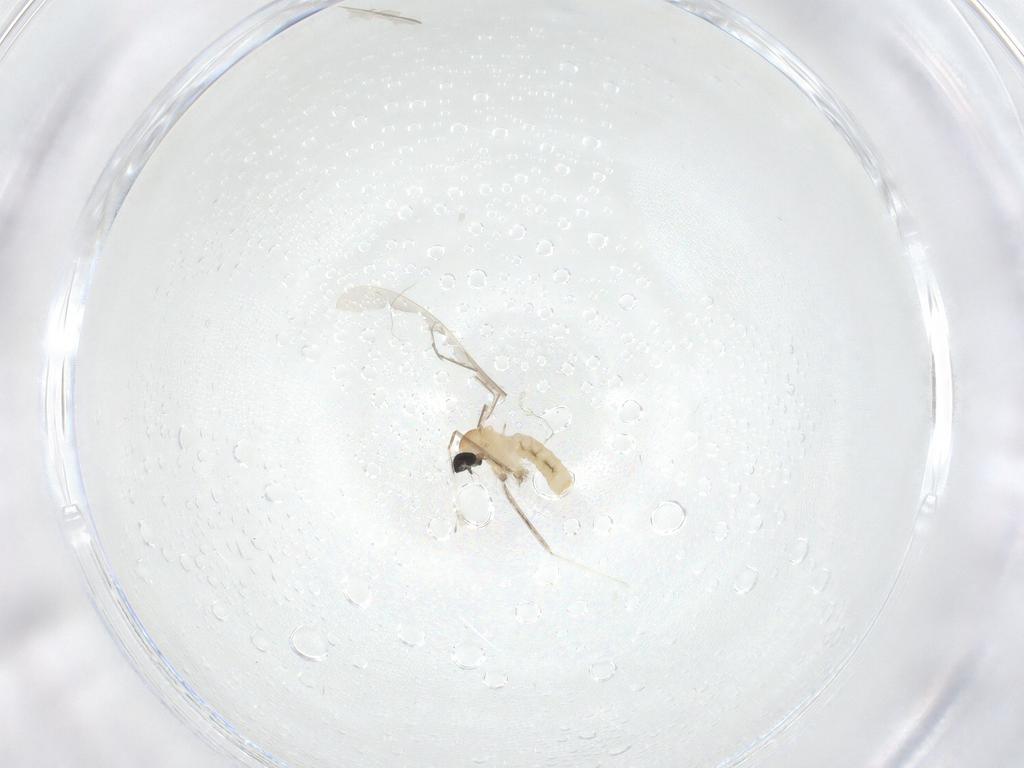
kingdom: Animalia
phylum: Arthropoda
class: Insecta
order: Diptera
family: Cecidomyiidae
